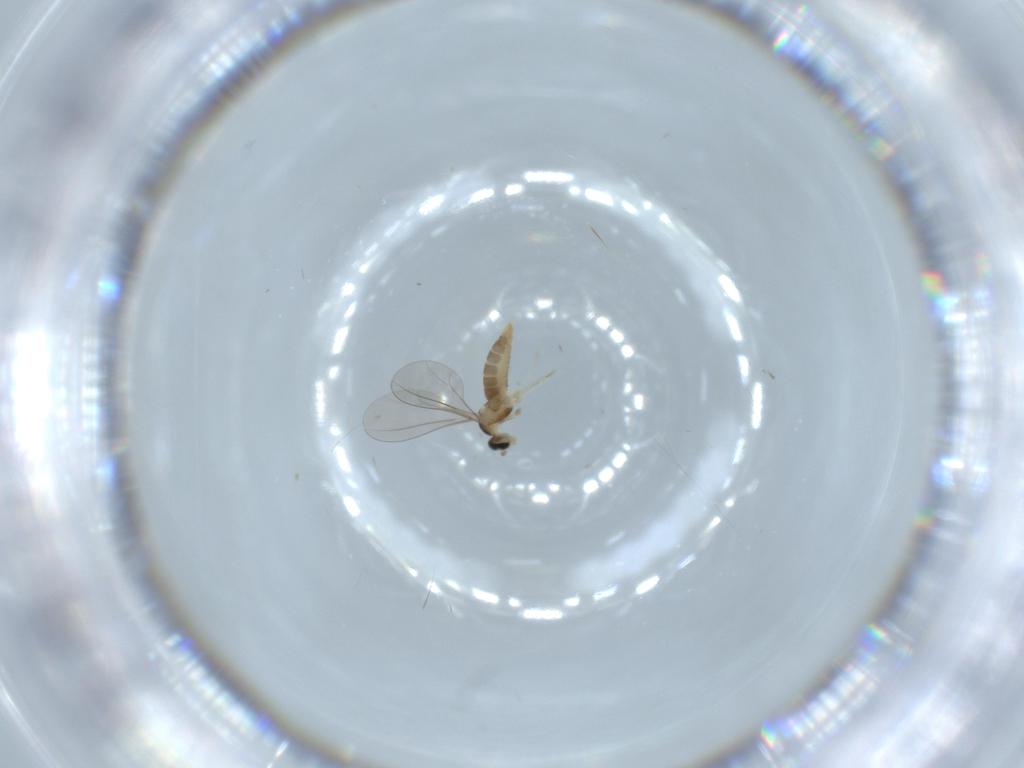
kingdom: Animalia
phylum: Arthropoda
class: Insecta
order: Diptera
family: Cecidomyiidae
